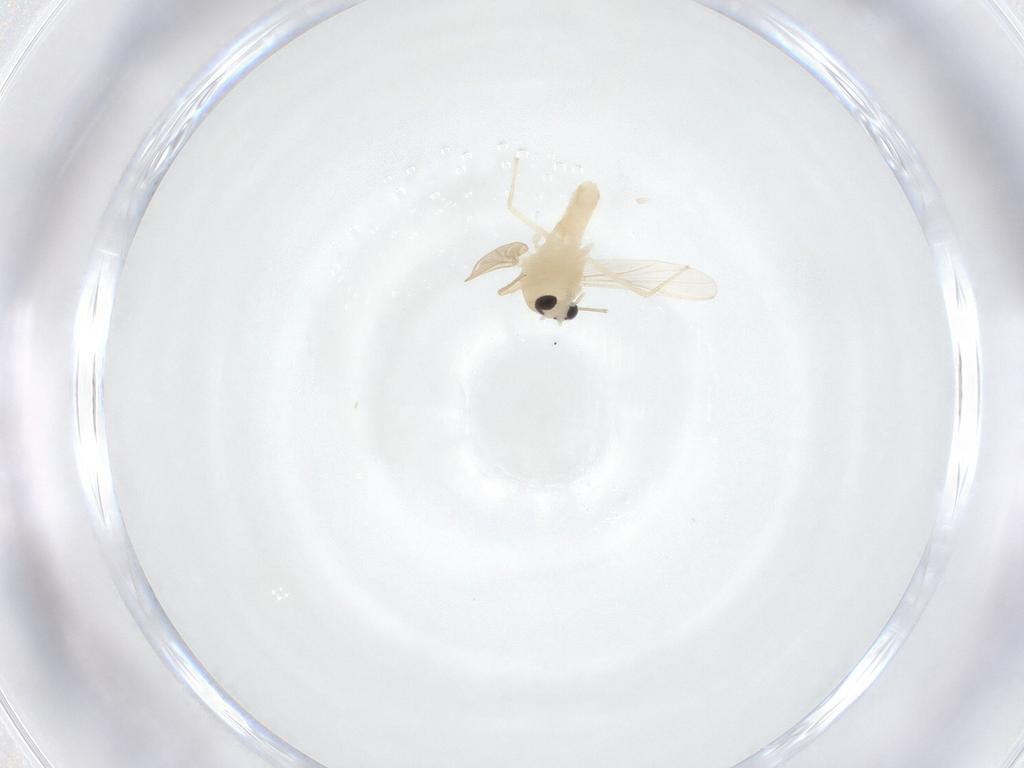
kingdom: Animalia
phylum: Arthropoda
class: Insecta
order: Diptera
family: Chironomidae
